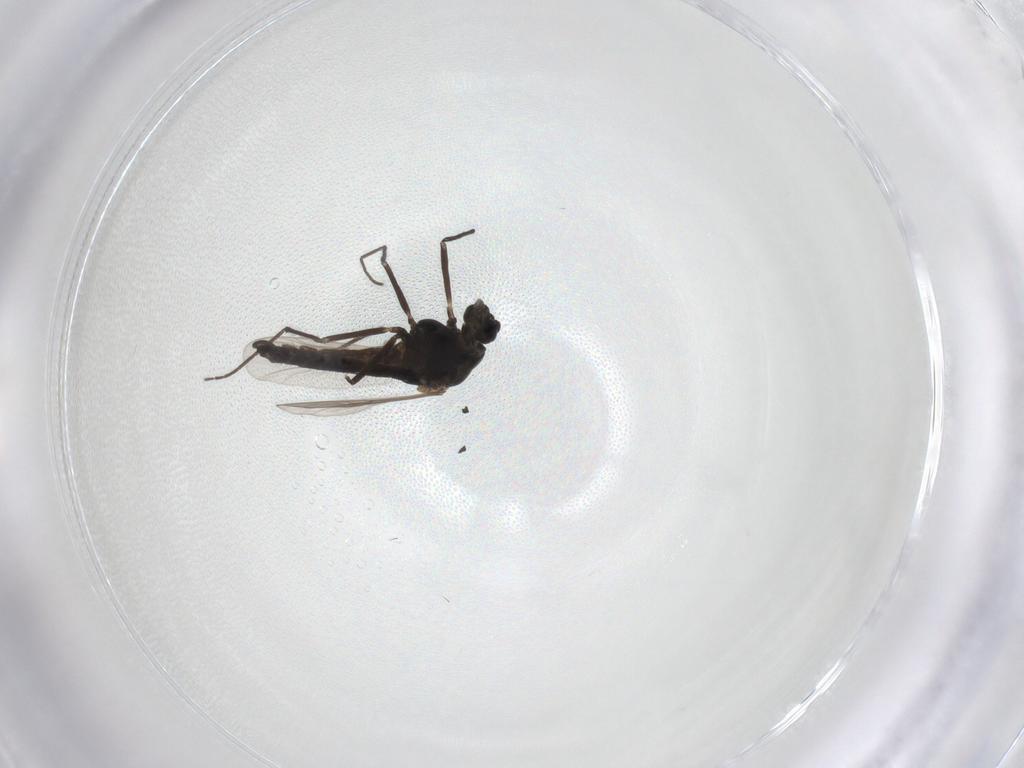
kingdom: Animalia
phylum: Arthropoda
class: Insecta
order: Diptera
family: Chironomidae
